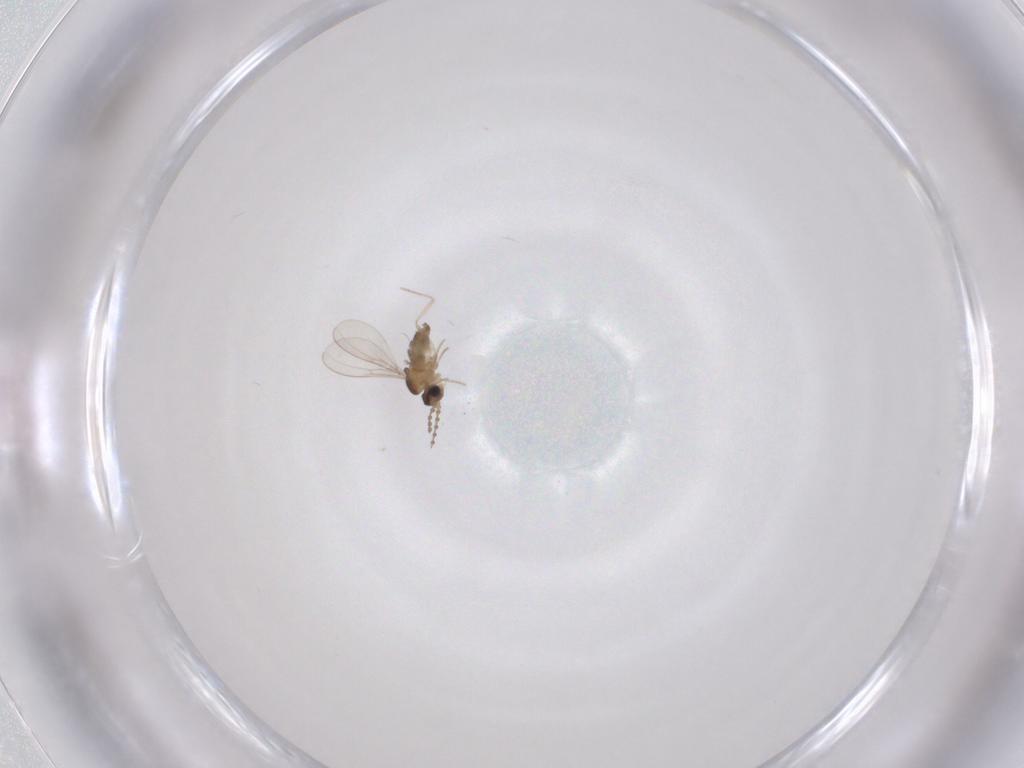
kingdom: Animalia
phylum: Arthropoda
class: Insecta
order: Diptera
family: Cecidomyiidae
